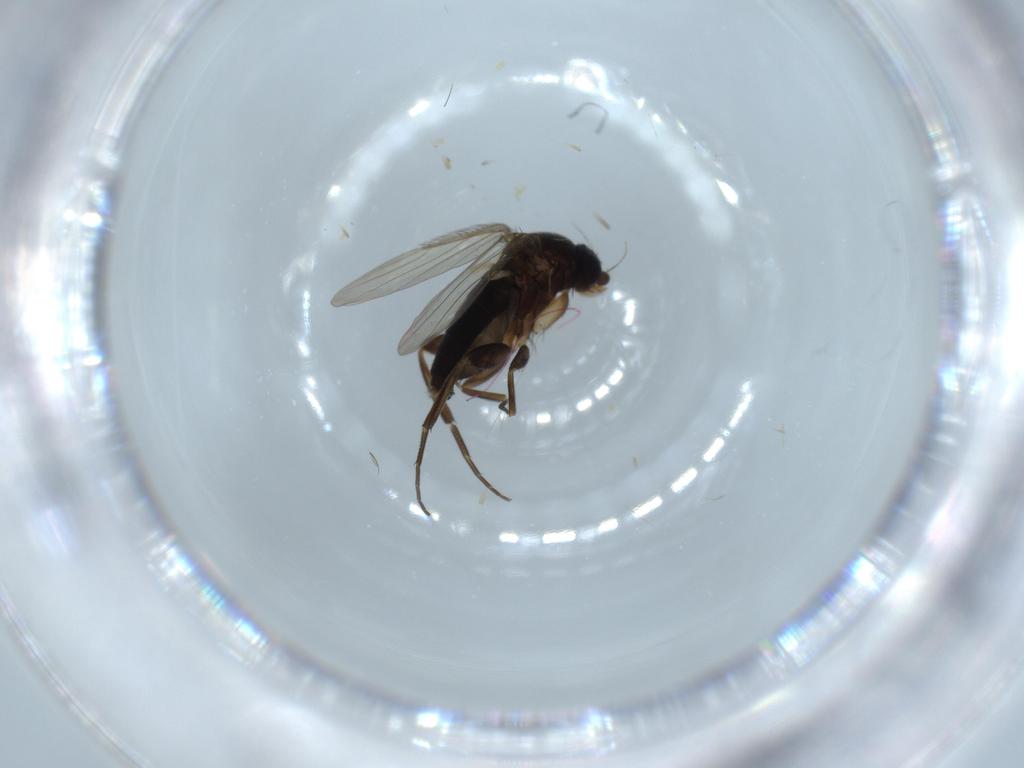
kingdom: Animalia
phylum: Arthropoda
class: Insecta
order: Diptera
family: Phoridae
